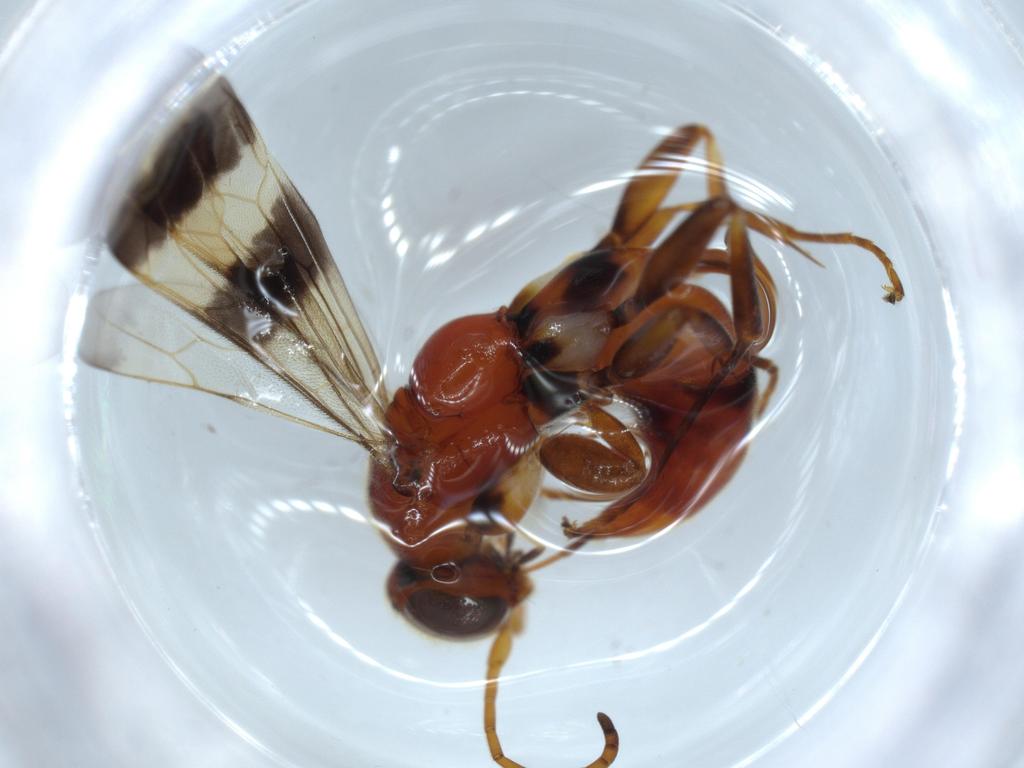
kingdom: Animalia
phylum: Arthropoda
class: Insecta
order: Hymenoptera
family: Pompilidae
